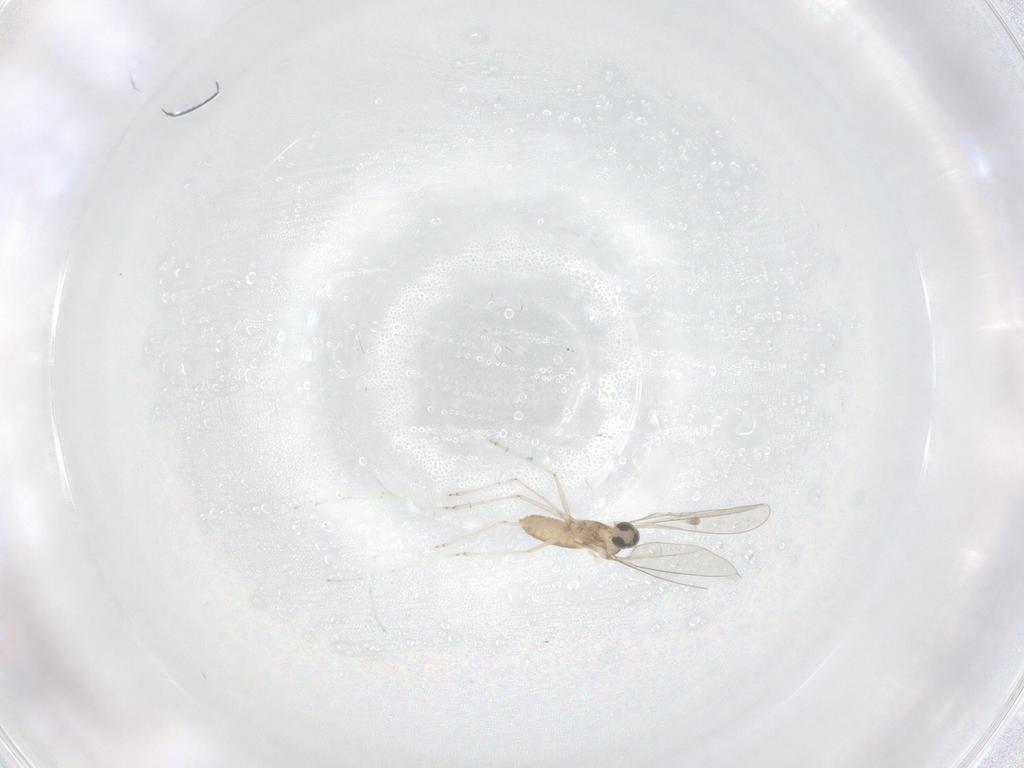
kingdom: Animalia
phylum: Arthropoda
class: Insecta
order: Diptera
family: Cecidomyiidae
